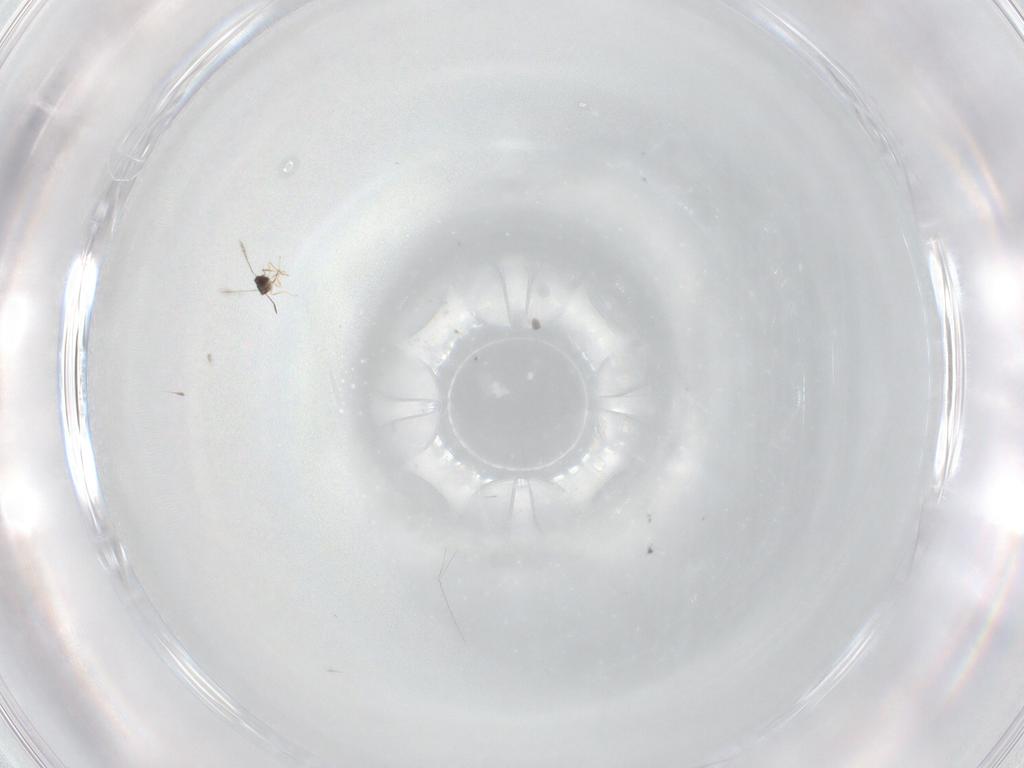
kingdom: Animalia
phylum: Arthropoda
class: Insecta
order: Hymenoptera
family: Mymaridae
